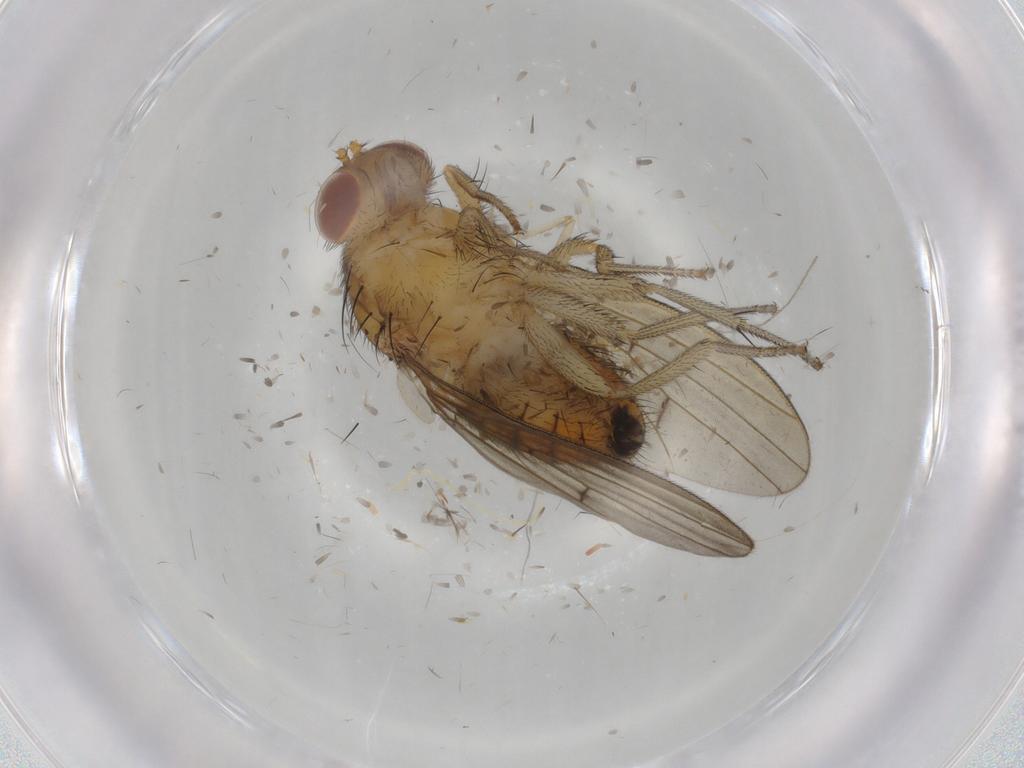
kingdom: Animalia
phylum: Arthropoda
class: Insecta
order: Diptera
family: Chironomidae
